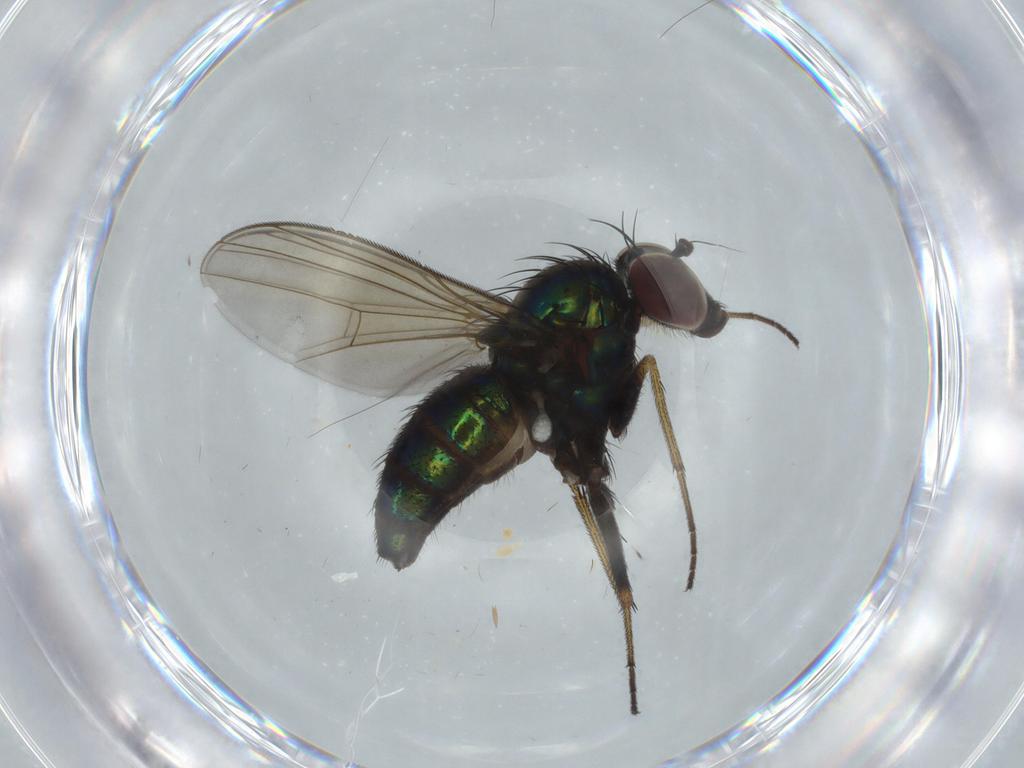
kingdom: Animalia
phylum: Arthropoda
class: Insecta
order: Diptera
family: Dolichopodidae
